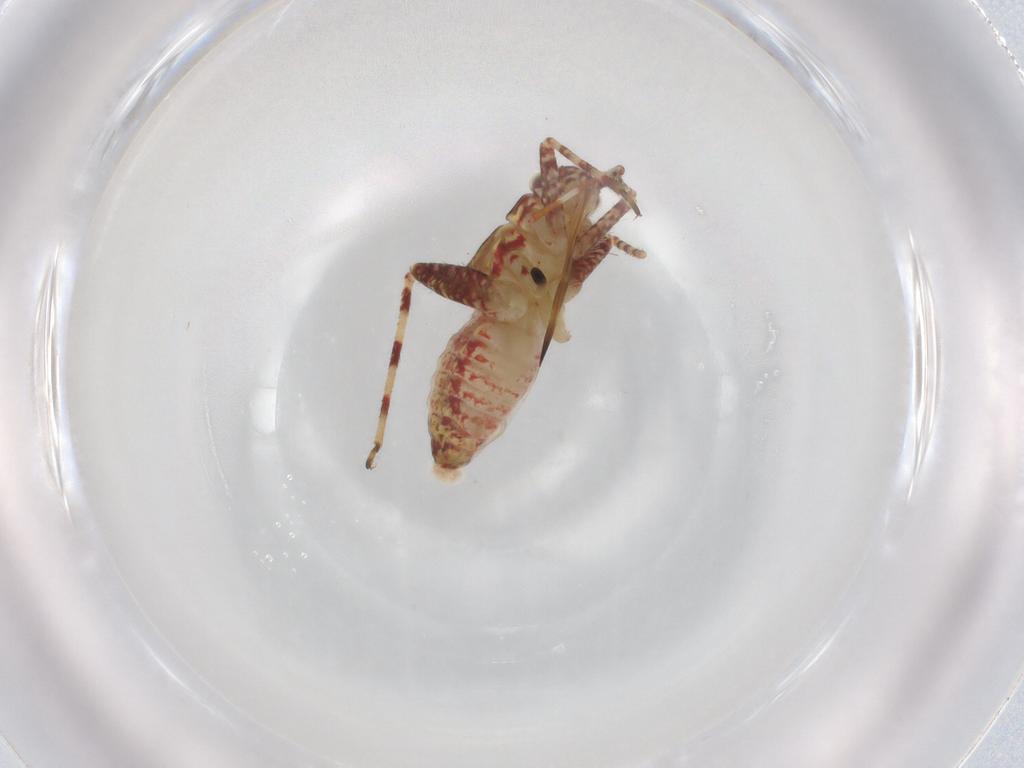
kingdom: Animalia
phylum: Arthropoda
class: Insecta
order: Hemiptera
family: Miridae
